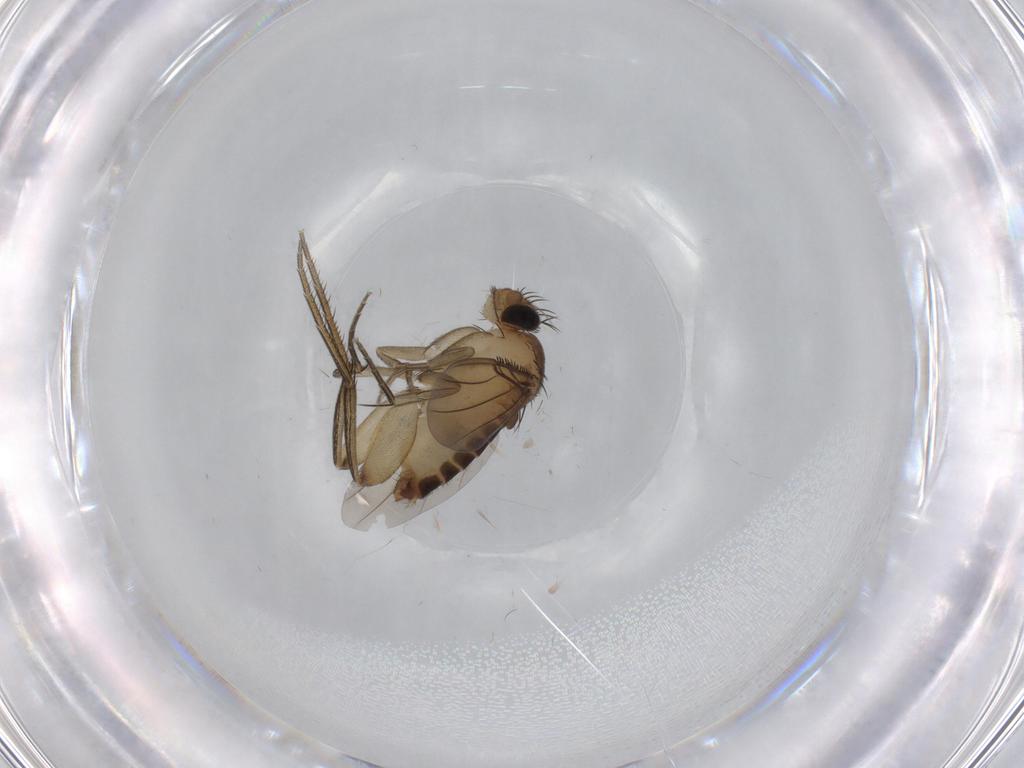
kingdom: Animalia
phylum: Arthropoda
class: Insecta
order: Diptera
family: Phoridae
